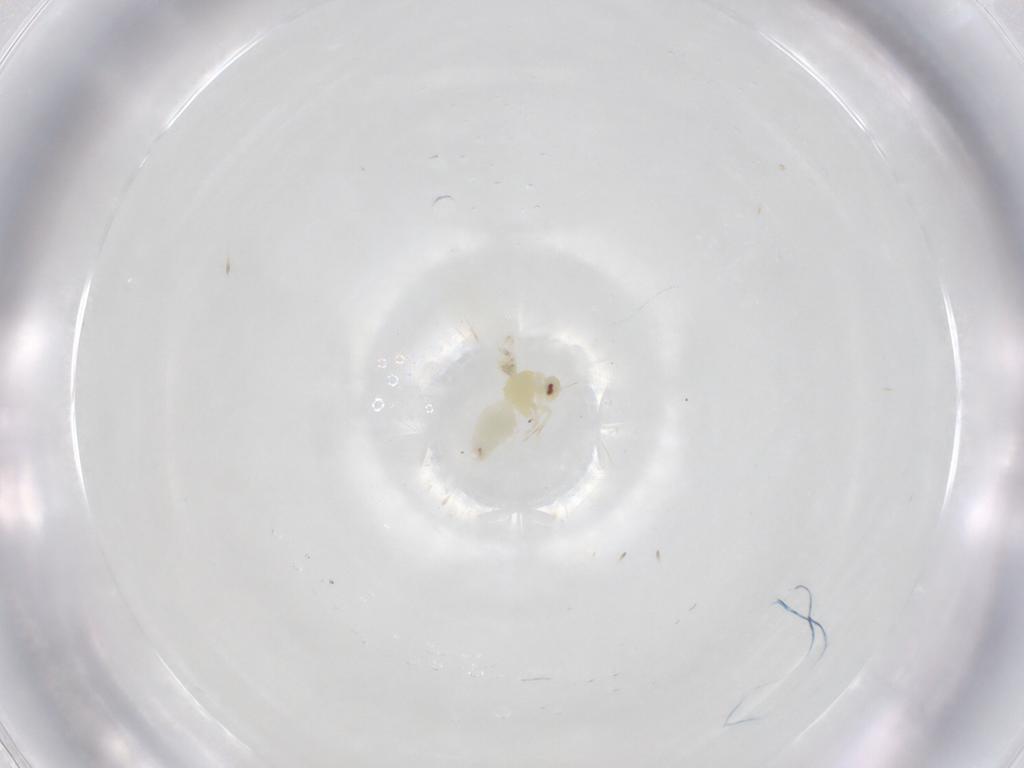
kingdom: Animalia
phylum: Arthropoda
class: Insecta
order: Hemiptera
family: Aleyrodidae
